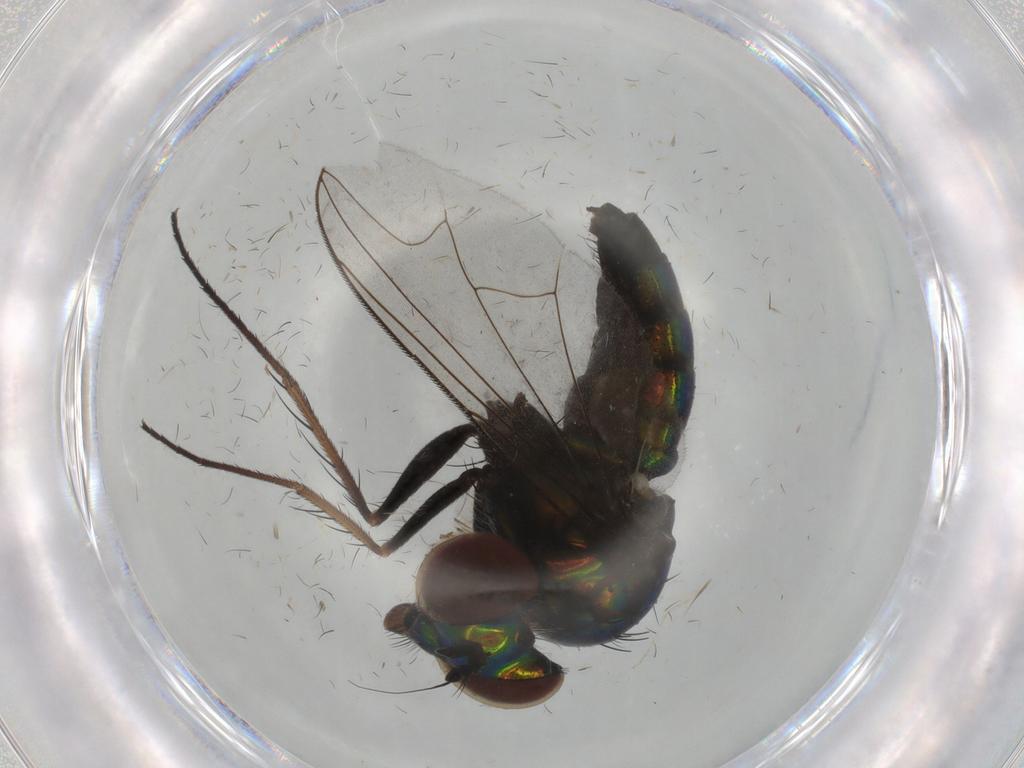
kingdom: Animalia
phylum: Arthropoda
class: Insecta
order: Diptera
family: Dolichopodidae
